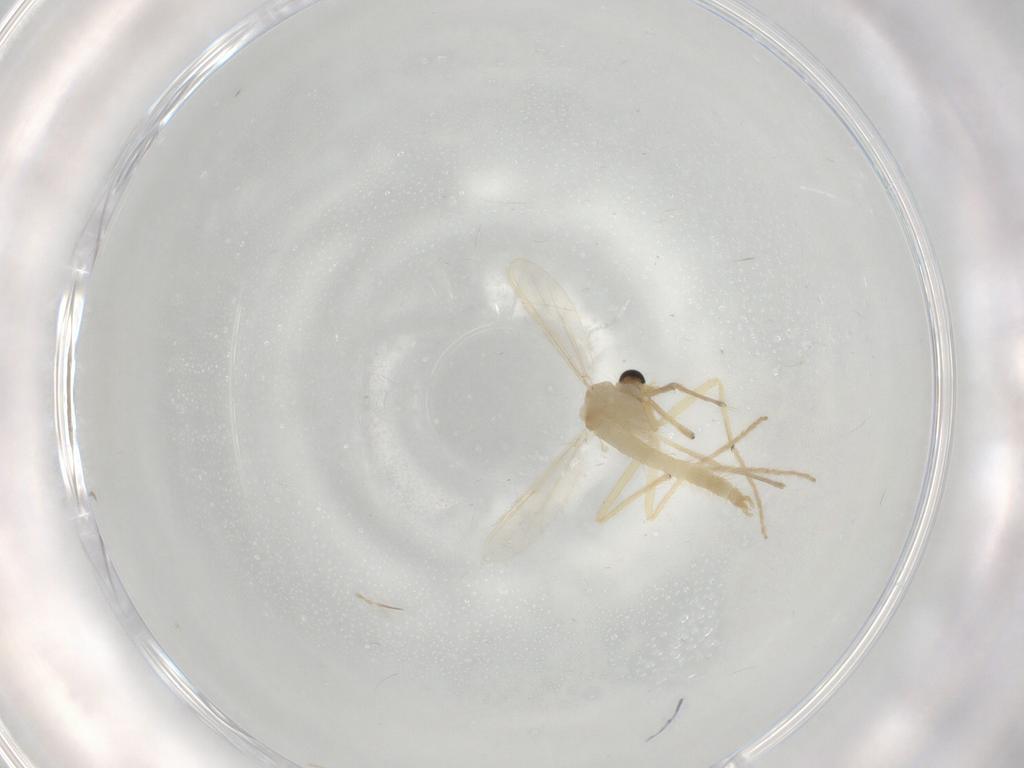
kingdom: Animalia
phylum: Arthropoda
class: Insecta
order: Diptera
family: Chironomidae
